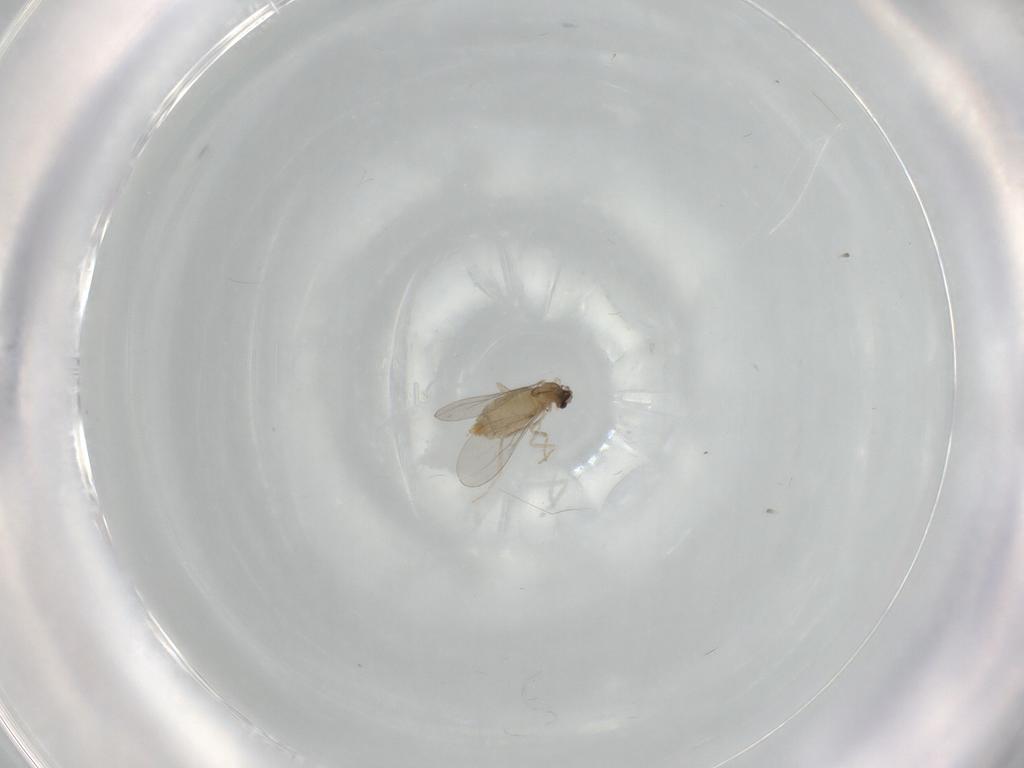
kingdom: Animalia
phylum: Arthropoda
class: Insecta
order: Diptera
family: Cecidomyiidae
